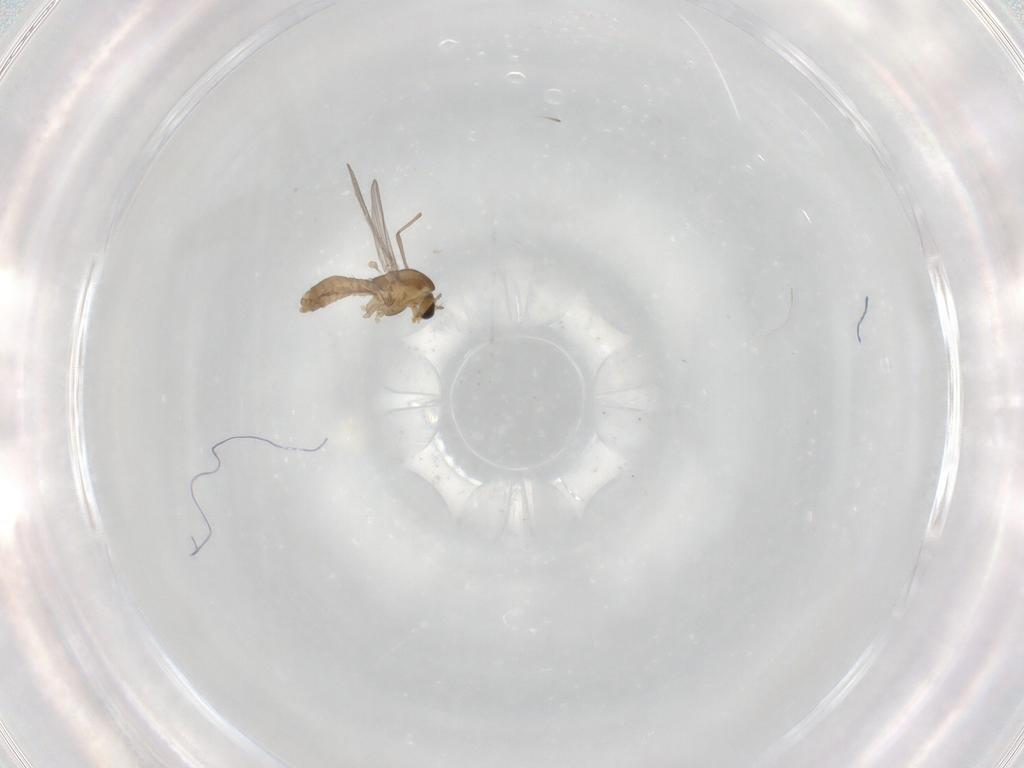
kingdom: Animalia
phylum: Arthropoda
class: Insecta
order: Diptera
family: Chironomidae
